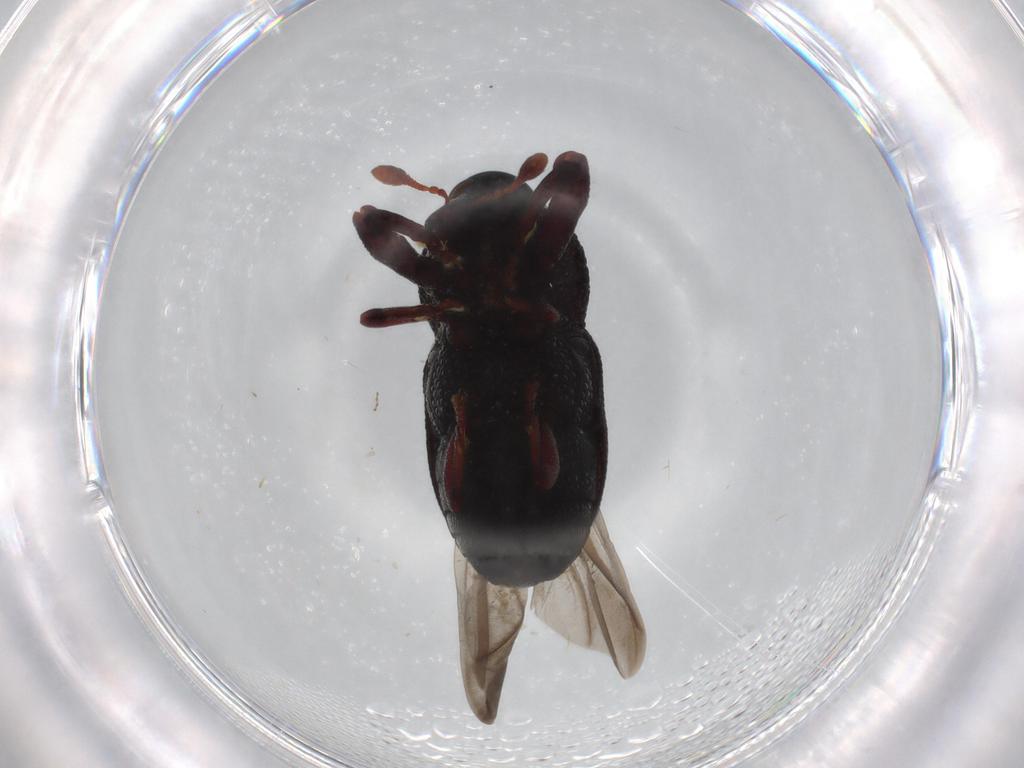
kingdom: Animalia
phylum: Arthropoda
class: Insecta
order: Coleoptera
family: Curculionidae
